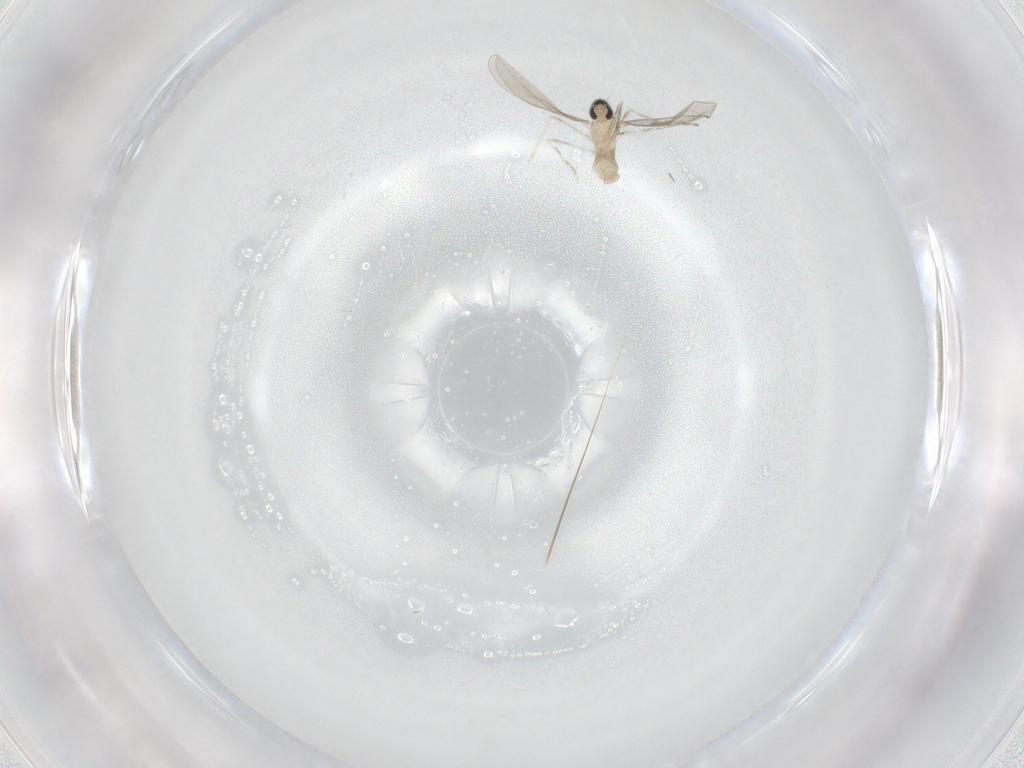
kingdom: Animalia
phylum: Arthropoda
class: Insecta
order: Diptera
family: Cecidomyiidae
